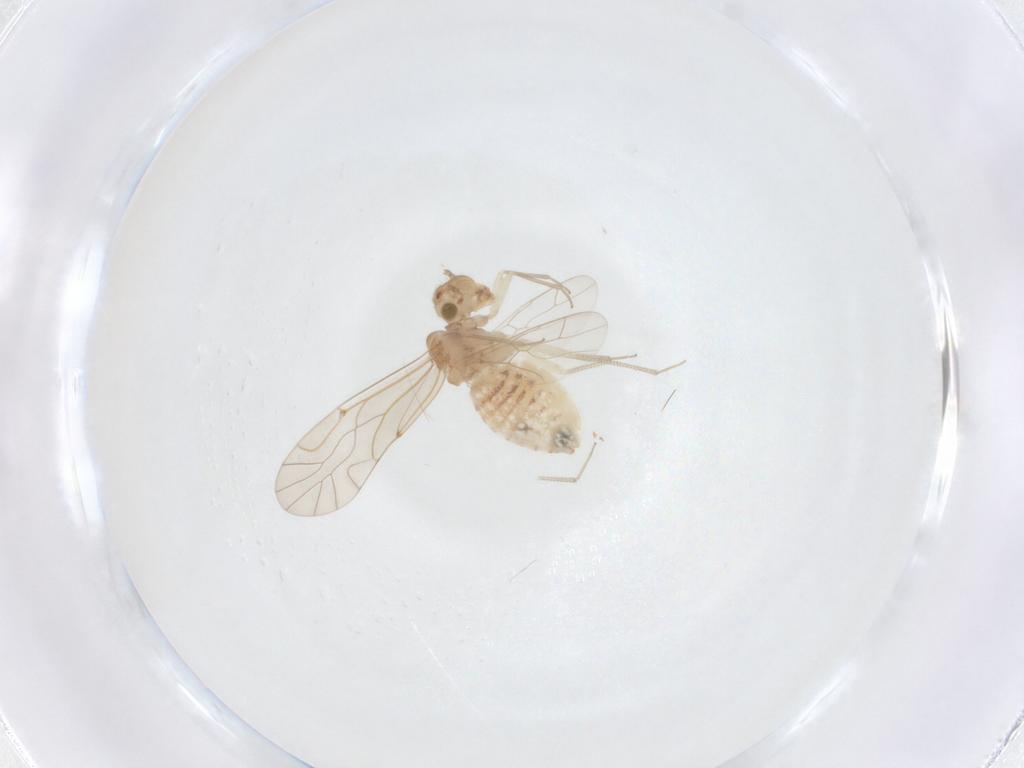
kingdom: Animalia
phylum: Arthropoda
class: Insecta
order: Psocodea
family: Lachesillidae
